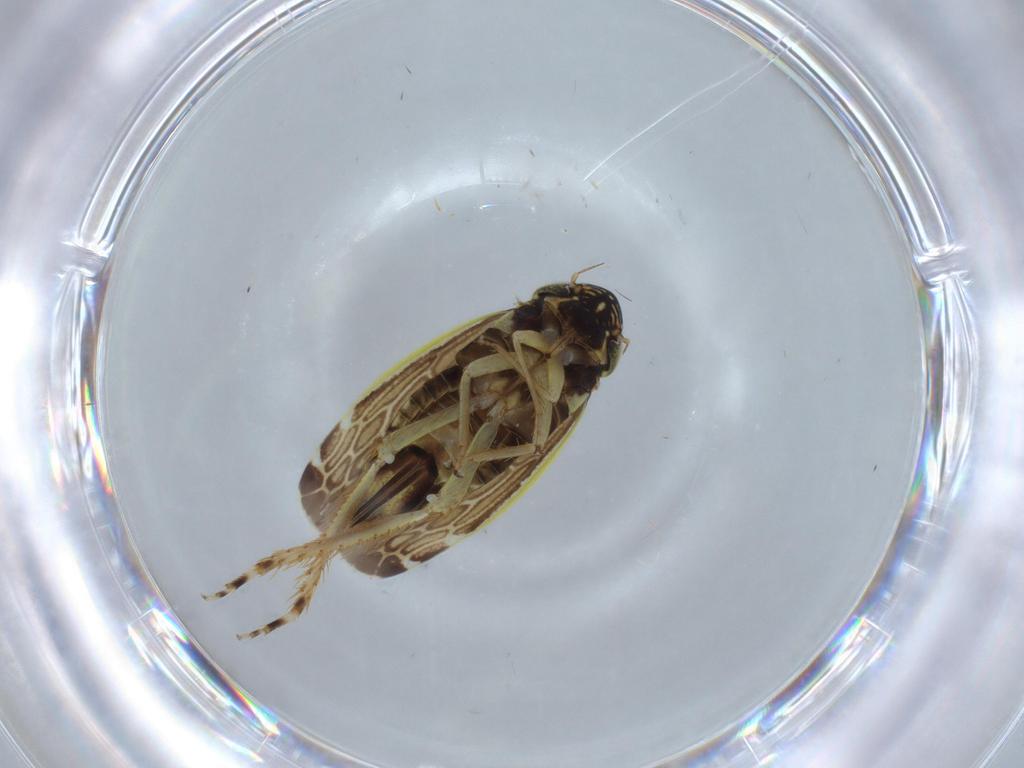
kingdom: Animalia
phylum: Arthropoda
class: Insecta
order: Hemiptera
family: Cicadellidae
